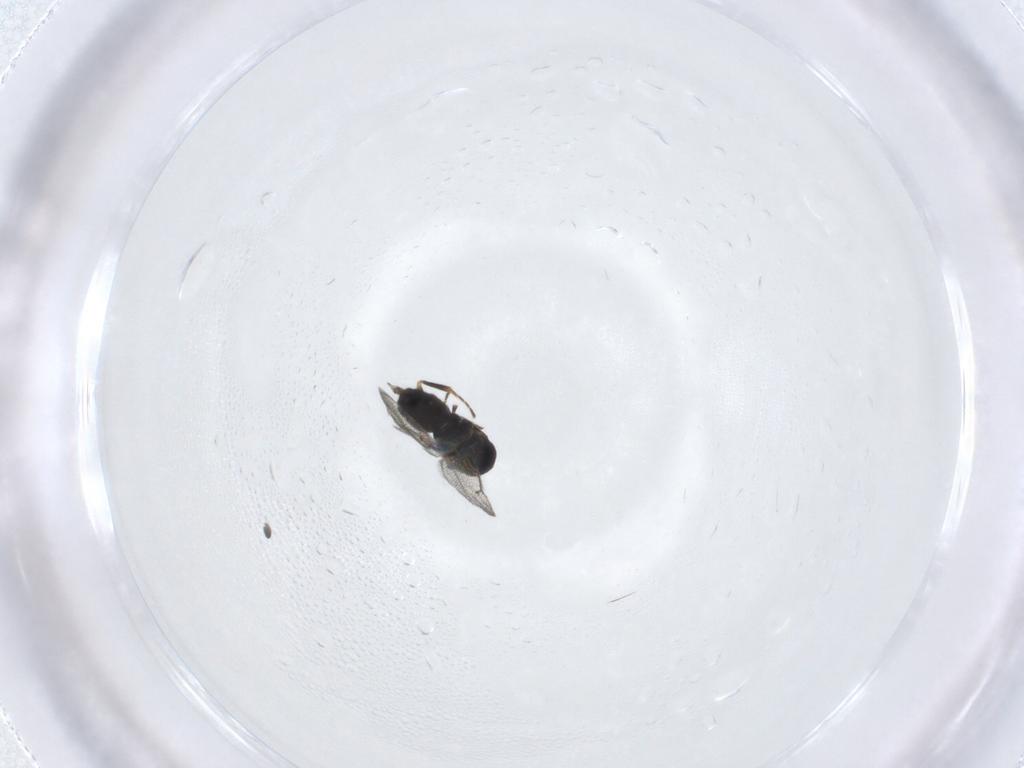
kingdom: Animalia
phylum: Arthropoda
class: Insecta
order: Hymenoptera
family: Eulophidae
